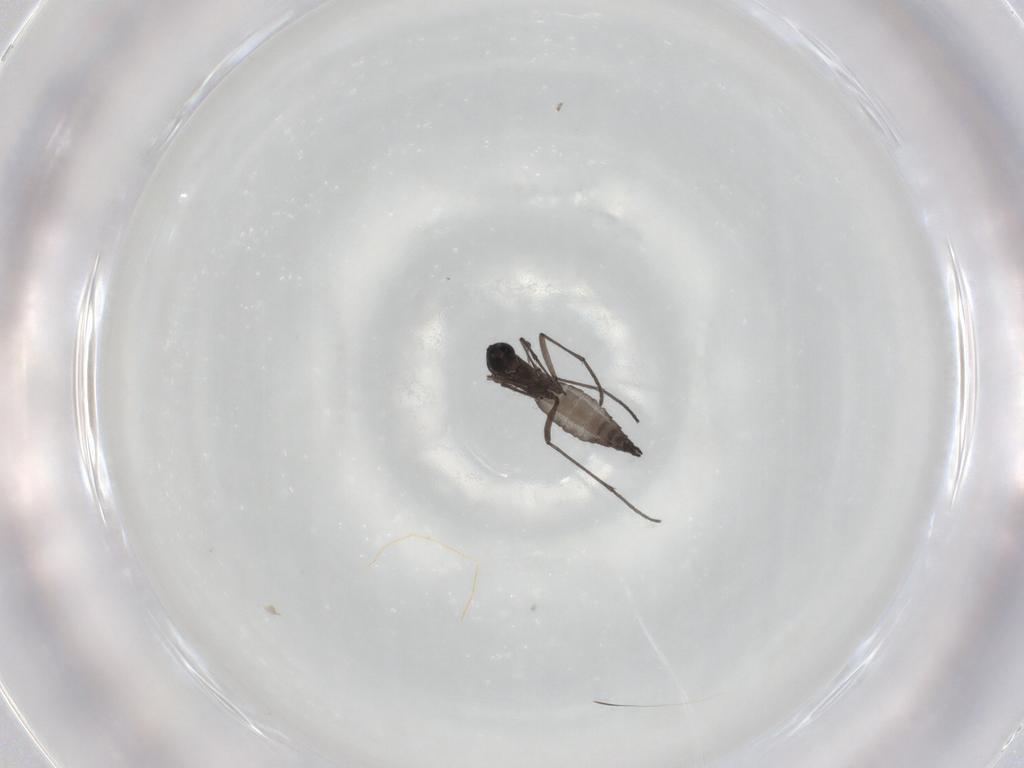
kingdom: Animalia
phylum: Arthropoda
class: Insecta
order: Diptera
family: Sciaridae
